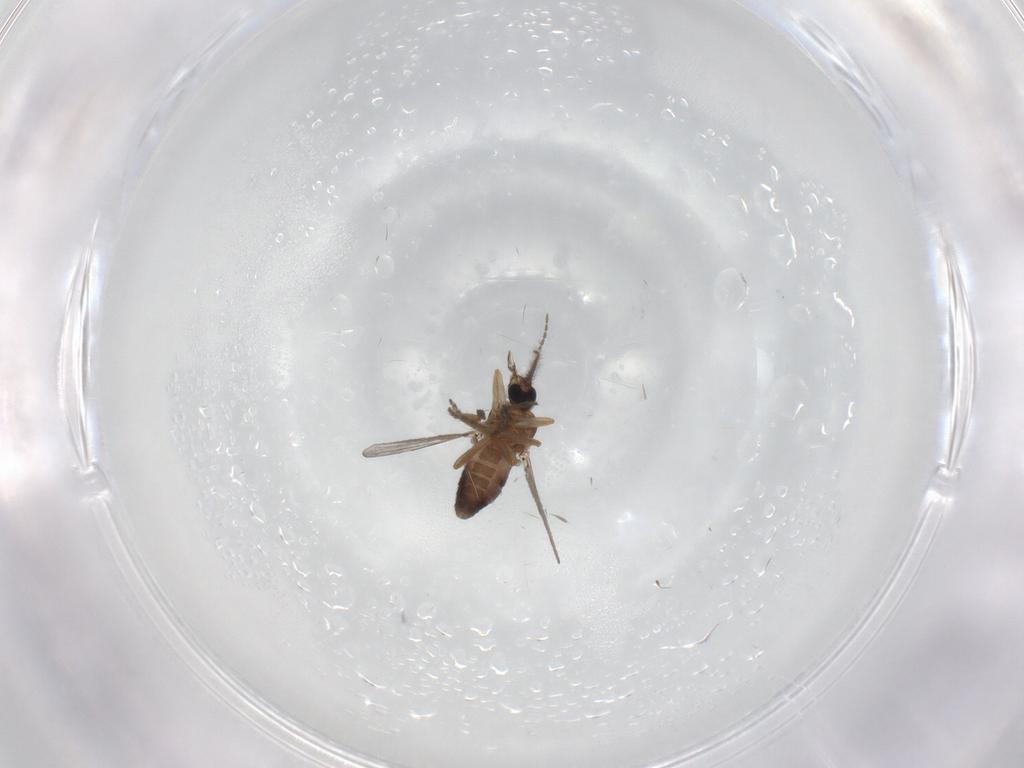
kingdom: Animalia
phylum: Arthropoda
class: Insecta
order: Diptera
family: Ceratopogonidae
